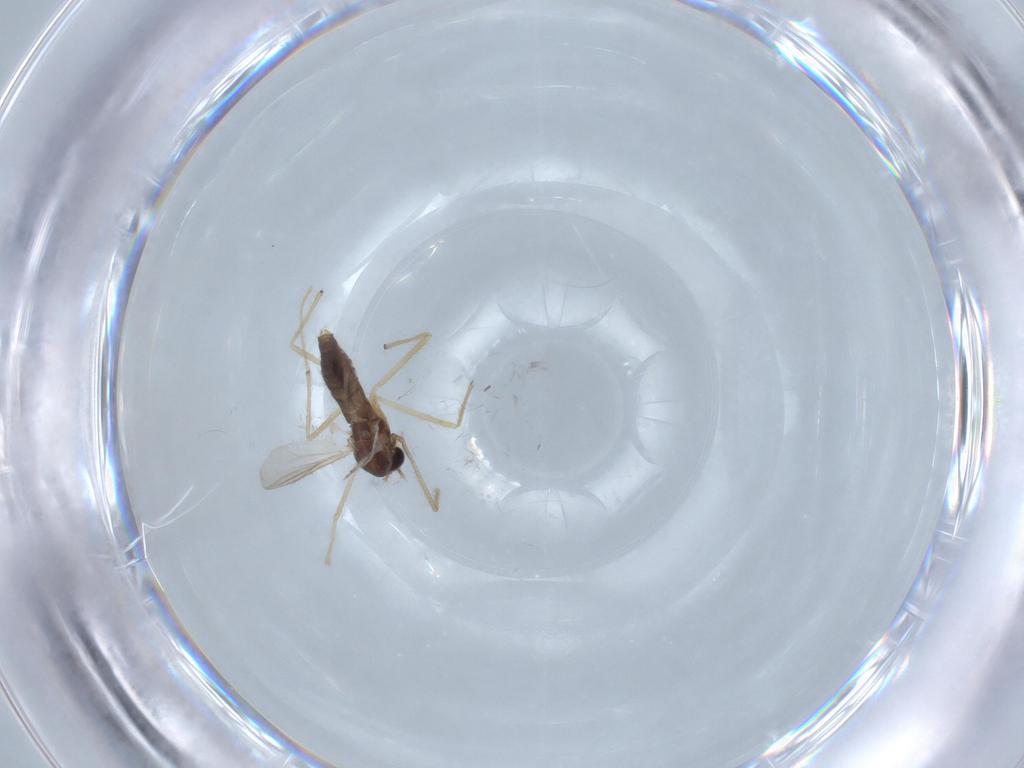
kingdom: Animalia
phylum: Arthropoda
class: Insecta
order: Diptera
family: Chironomidae
